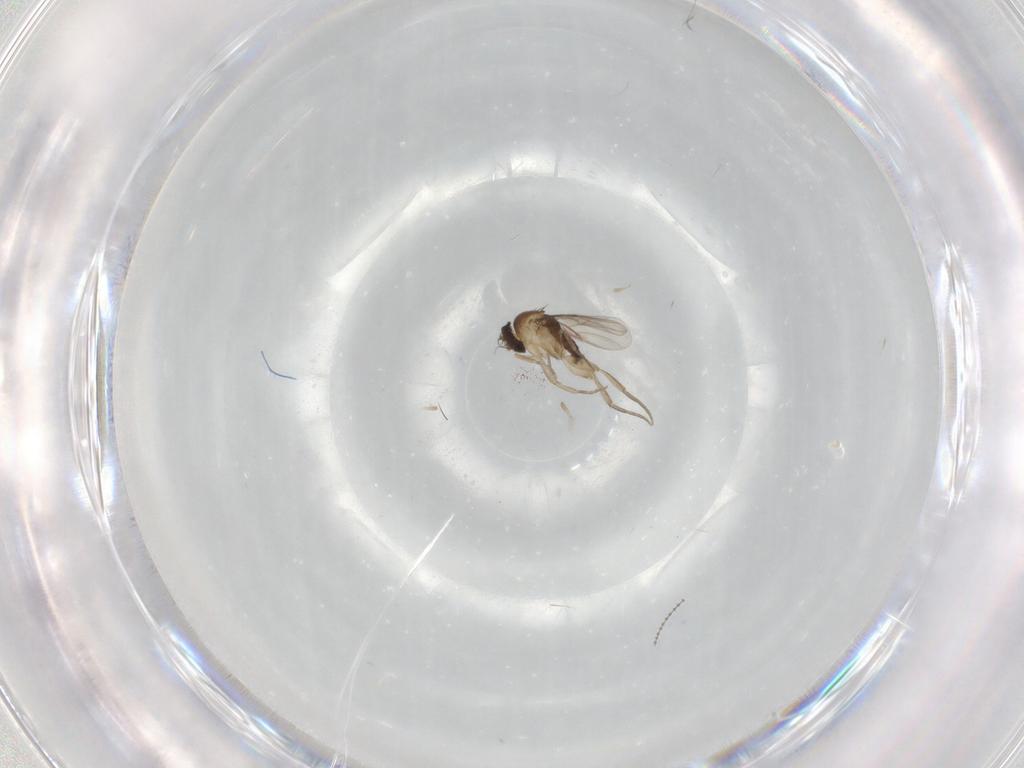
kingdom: Animalia
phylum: Arthropoda
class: Insecta
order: Diptera
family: Phoridae
